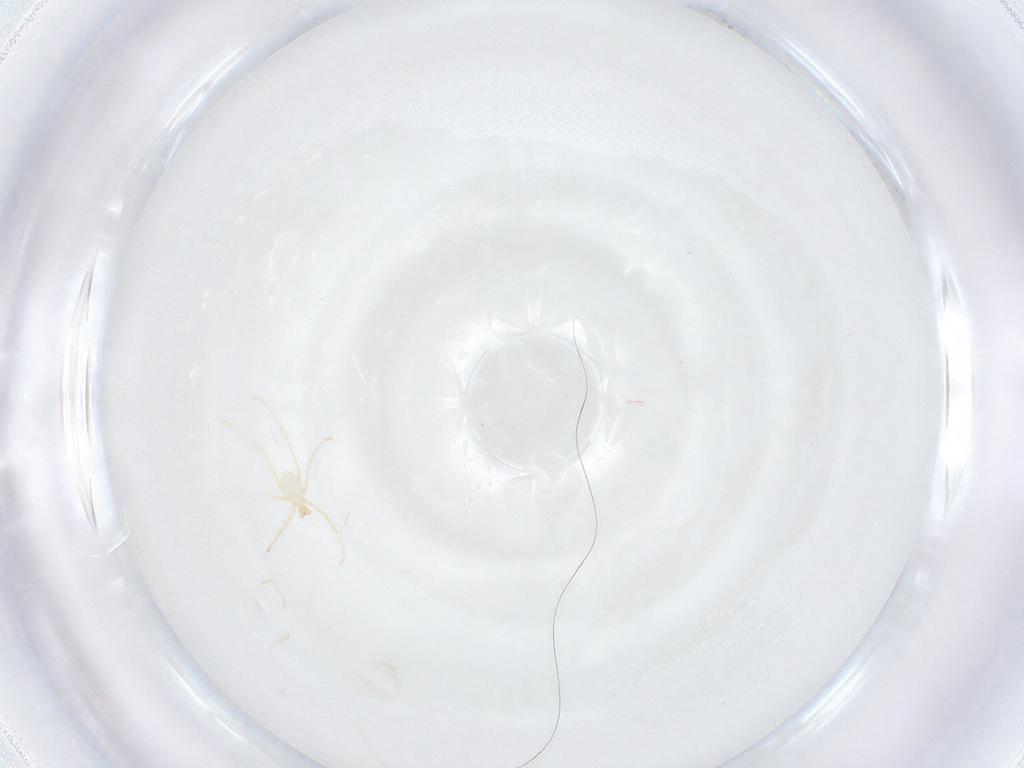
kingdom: Animalia
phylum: Arthropoda
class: Arachnida
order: Trombidiformes
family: Erythraeidae
